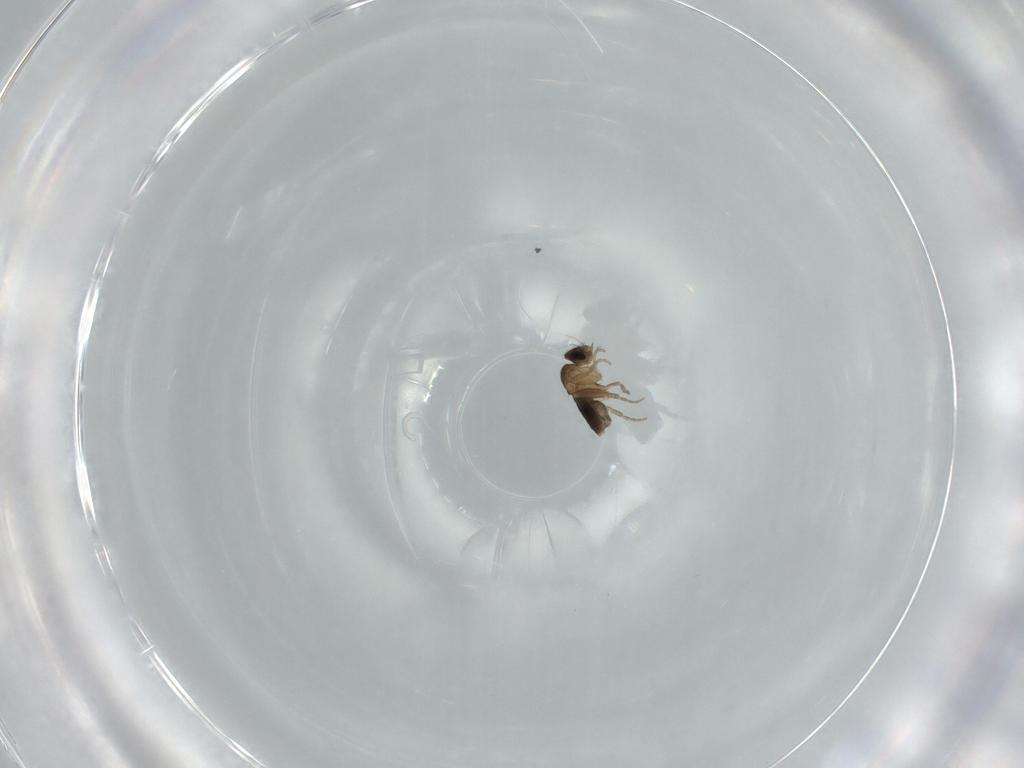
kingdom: Animalia
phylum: Arthropoda
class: Insecta
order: Diptera
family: Phoridae
